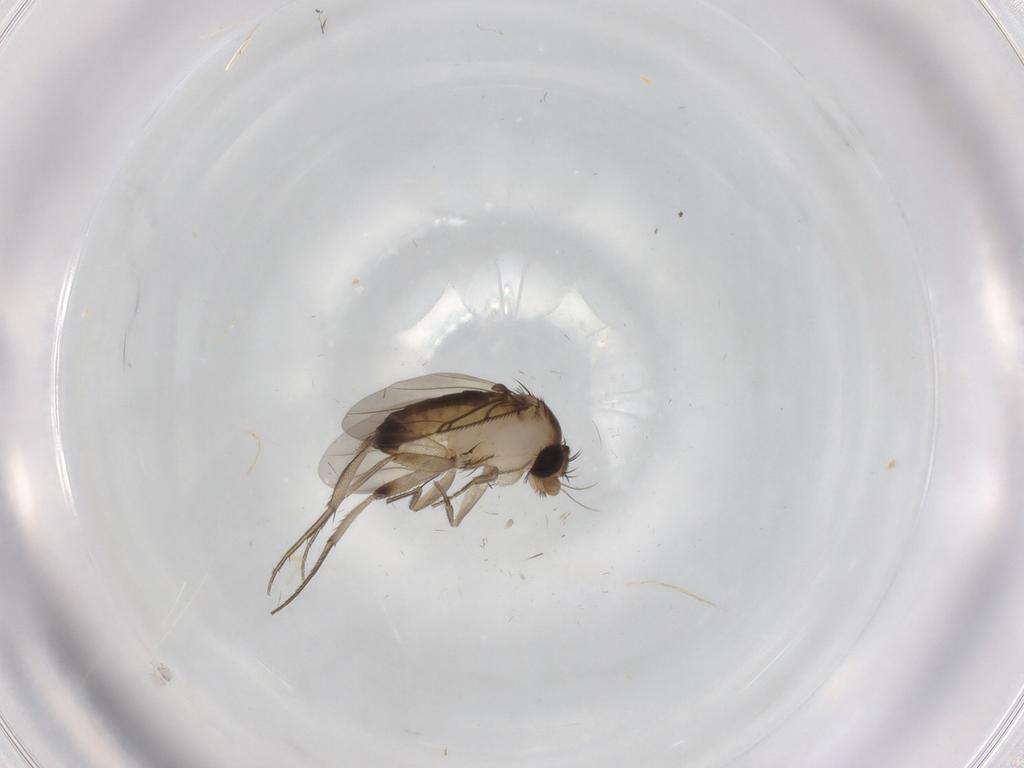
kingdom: Animalia
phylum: Arthropoda
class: Insecta
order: Diptera
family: Phoridae
